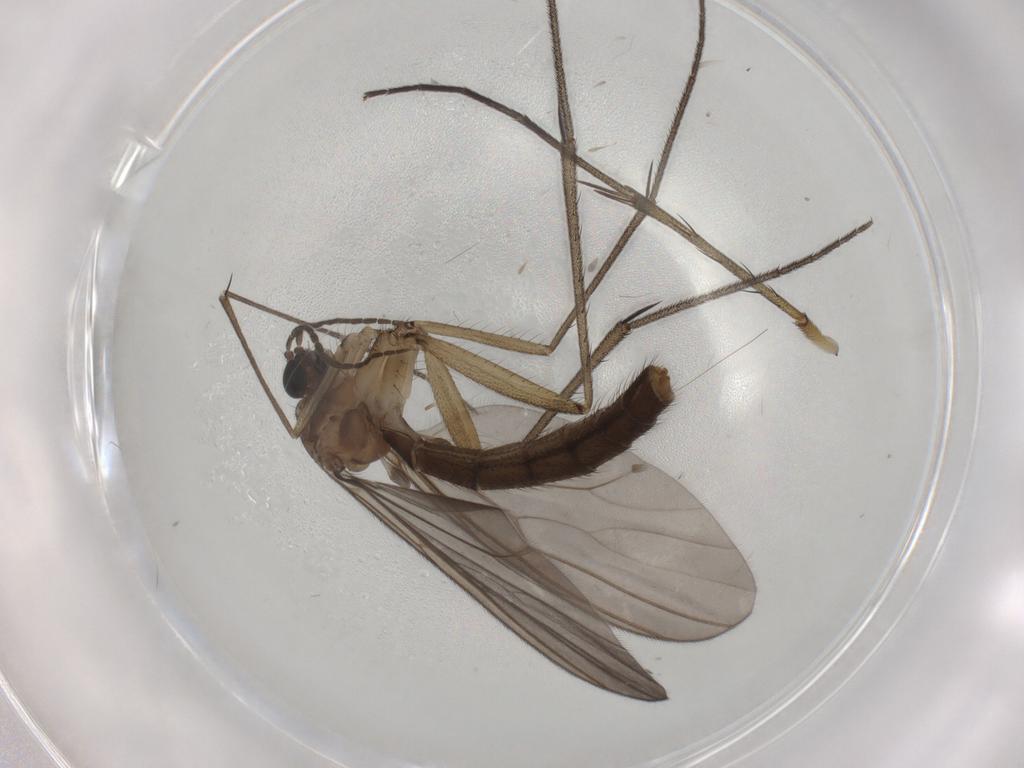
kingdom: Animalia
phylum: Arthropoda
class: Insecta
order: Diptera
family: Mycetophilidae
